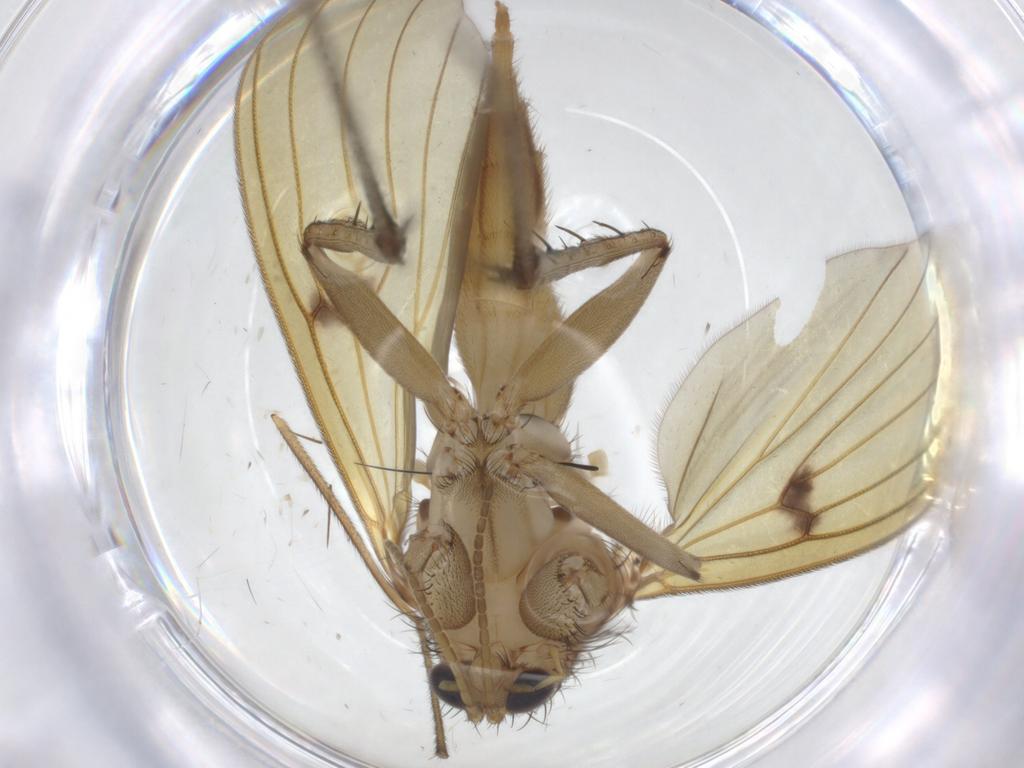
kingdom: Animalia
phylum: Arthropoda
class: Insecta
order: Diptera
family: Mycetophilidae
